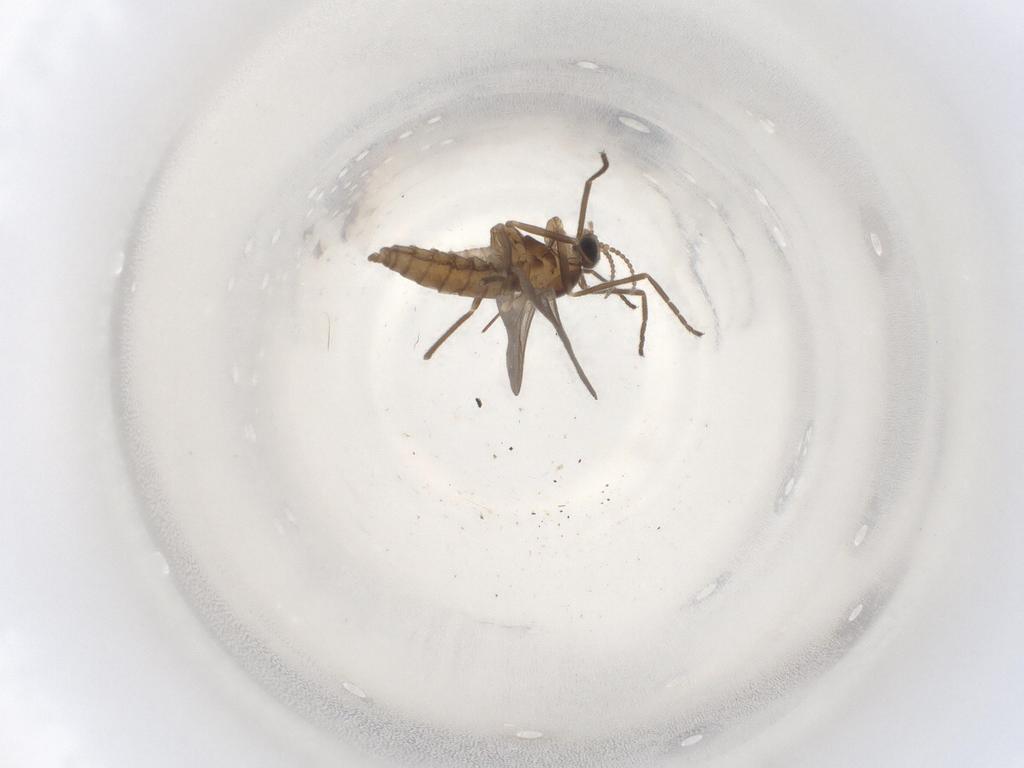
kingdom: Animalia
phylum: Arthropoda
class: Insecta
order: Diptera
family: Cecidomyiidae
